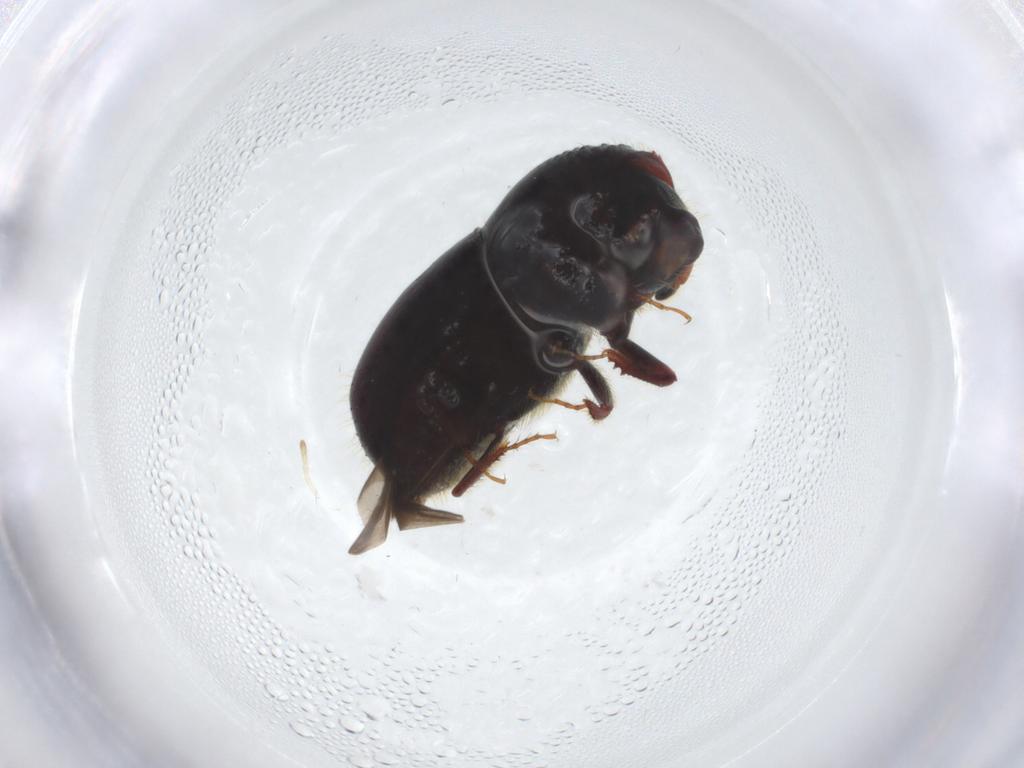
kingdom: Animalia
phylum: Arthropoda
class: Insecta
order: Coleoptera
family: Curculionidae
